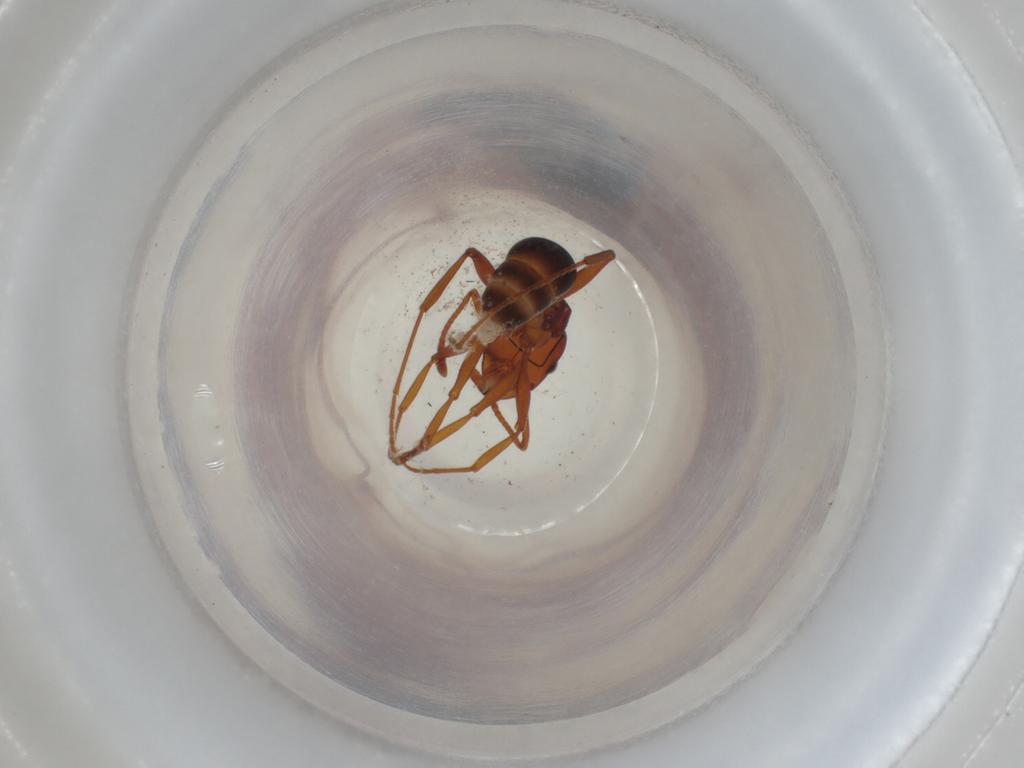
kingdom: Animalia
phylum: Arthropoda
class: Insecta
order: Hymenoptera
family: Formicidae
